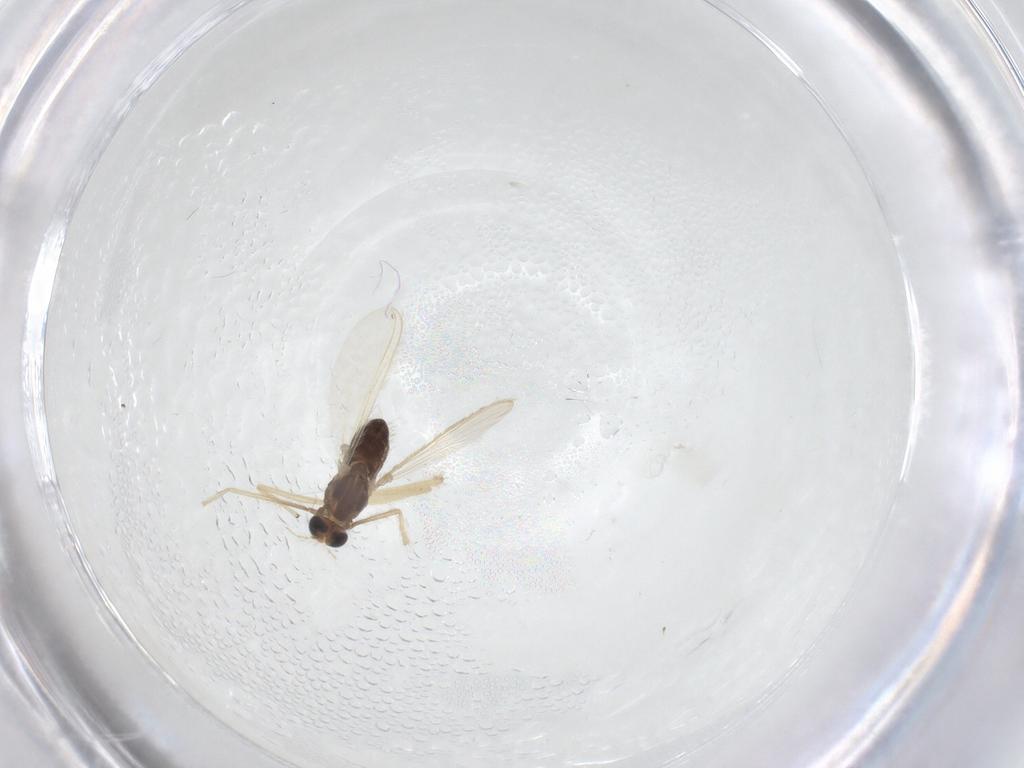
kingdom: Animalia
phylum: Arthropoda
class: Insecta
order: Diptera
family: Chironomidae
